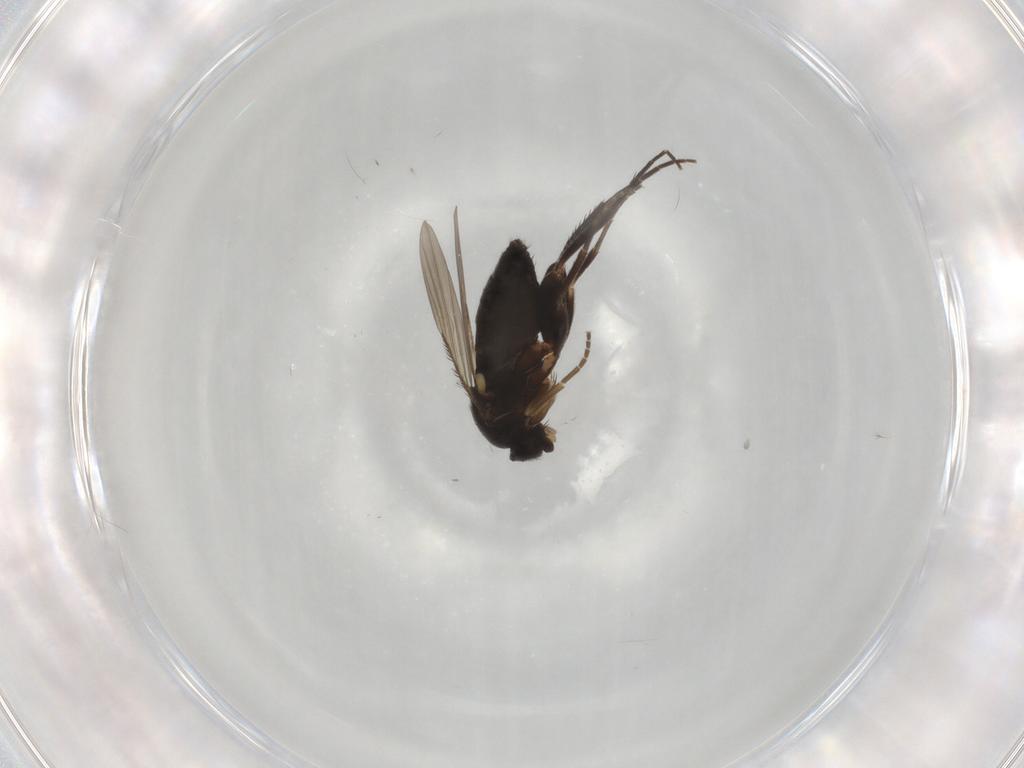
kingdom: Animalia
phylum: Arthropoda
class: Insecta
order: Diptera
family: Phoridae
